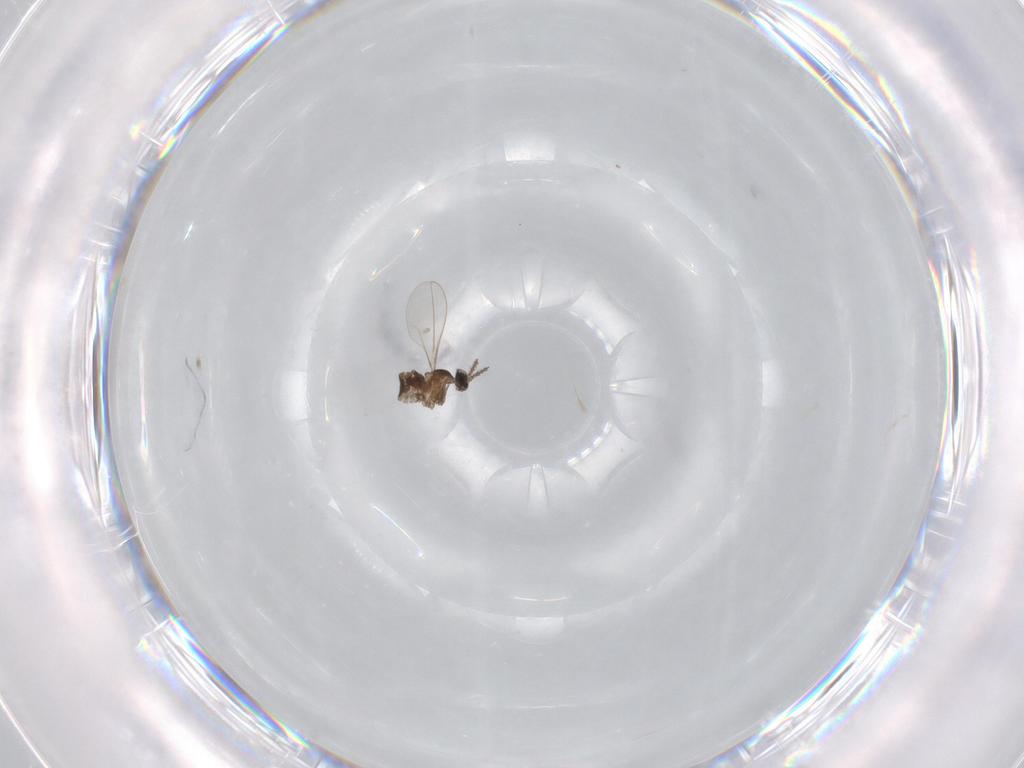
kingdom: Animalia
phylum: Arthropoda
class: Insecta
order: Diptera
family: Cecidomyiidae
